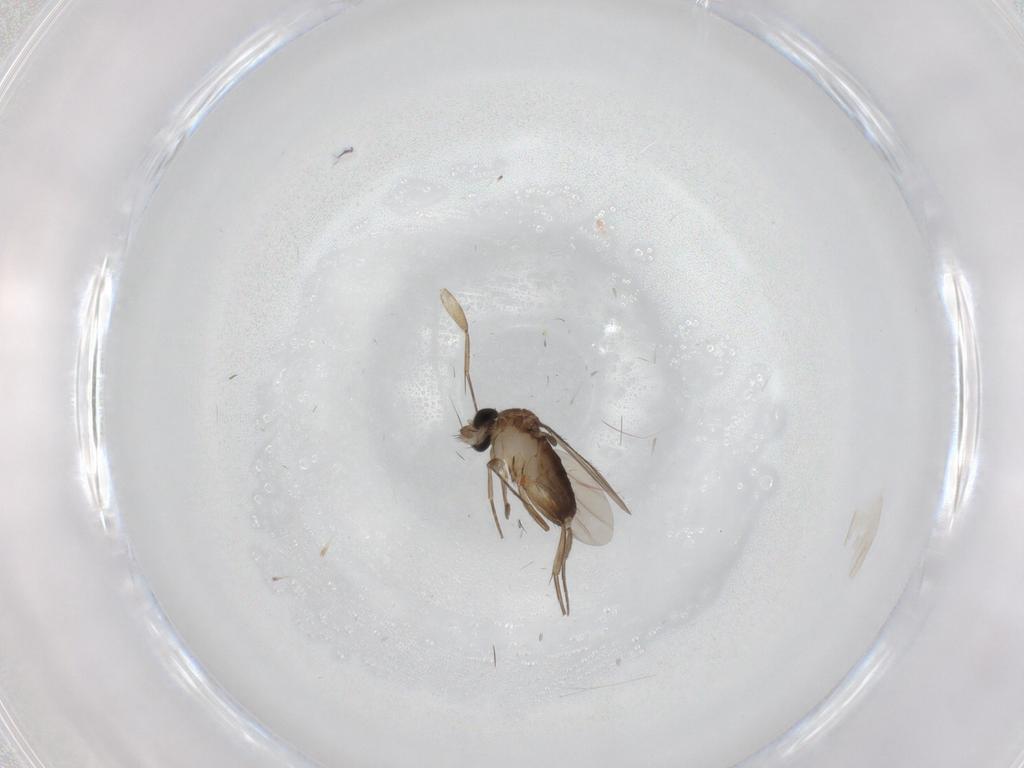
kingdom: Animalia
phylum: Arthropoda
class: Insecta
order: Diptera
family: Phoridae
